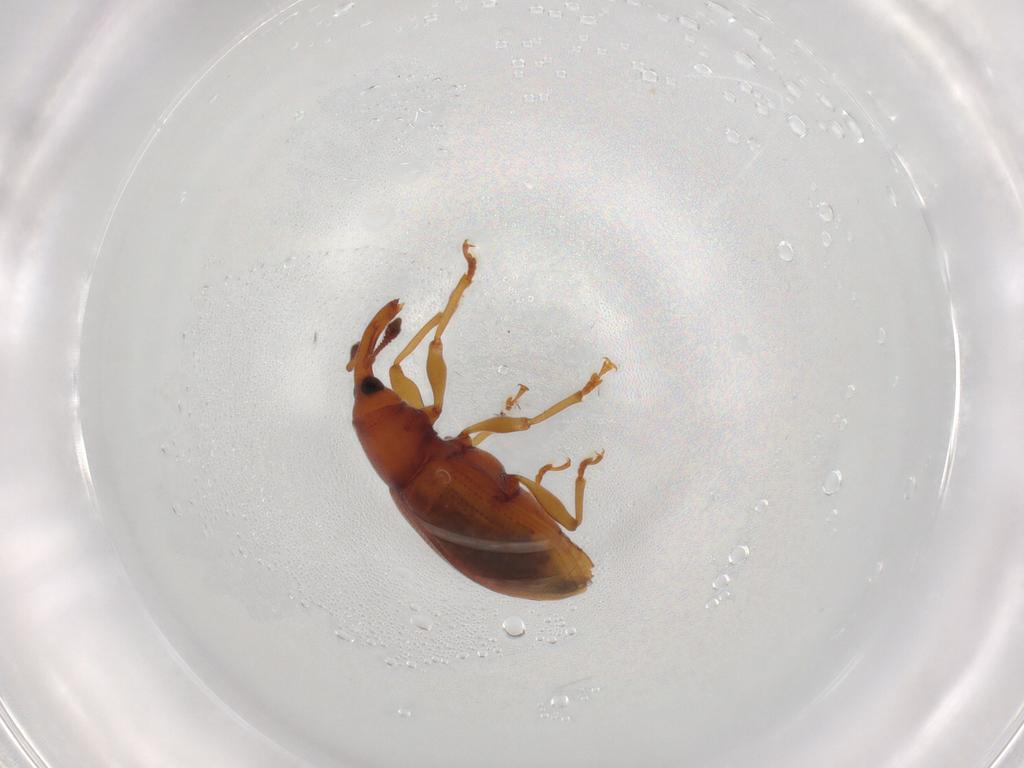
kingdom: Animalia
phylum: Arthropoda
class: Insecta
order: Coleoptera
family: Curculionidae
